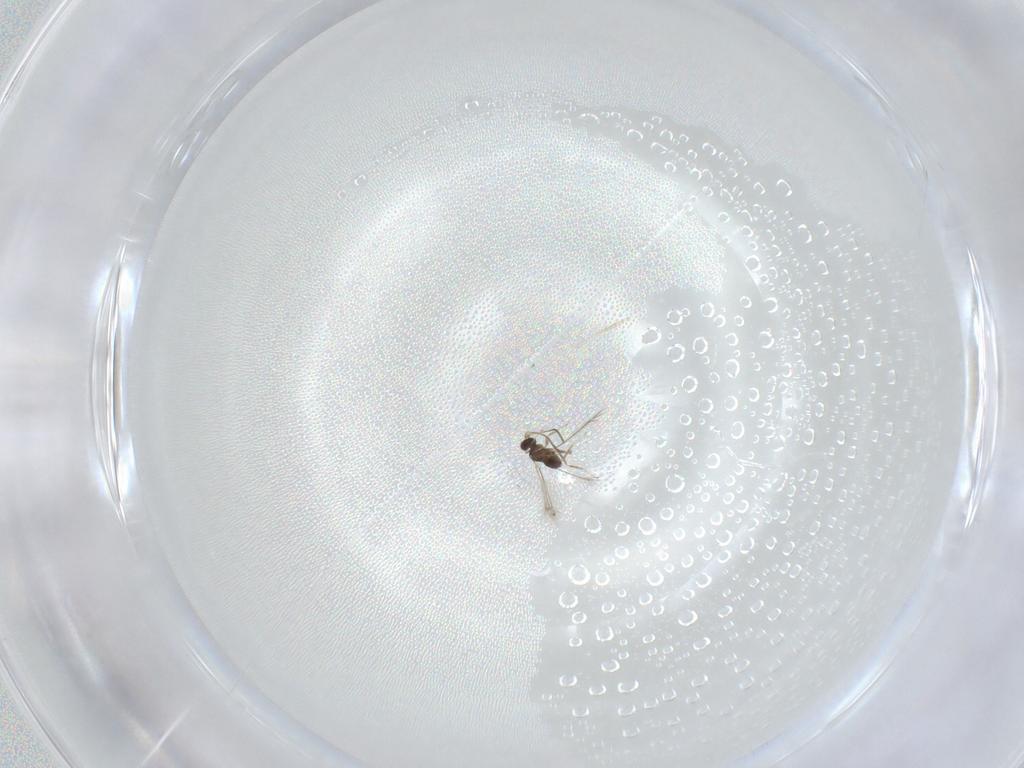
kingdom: Animalia
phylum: Arthropoda
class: Insecta
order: Hymenoptera
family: Mymaridae
